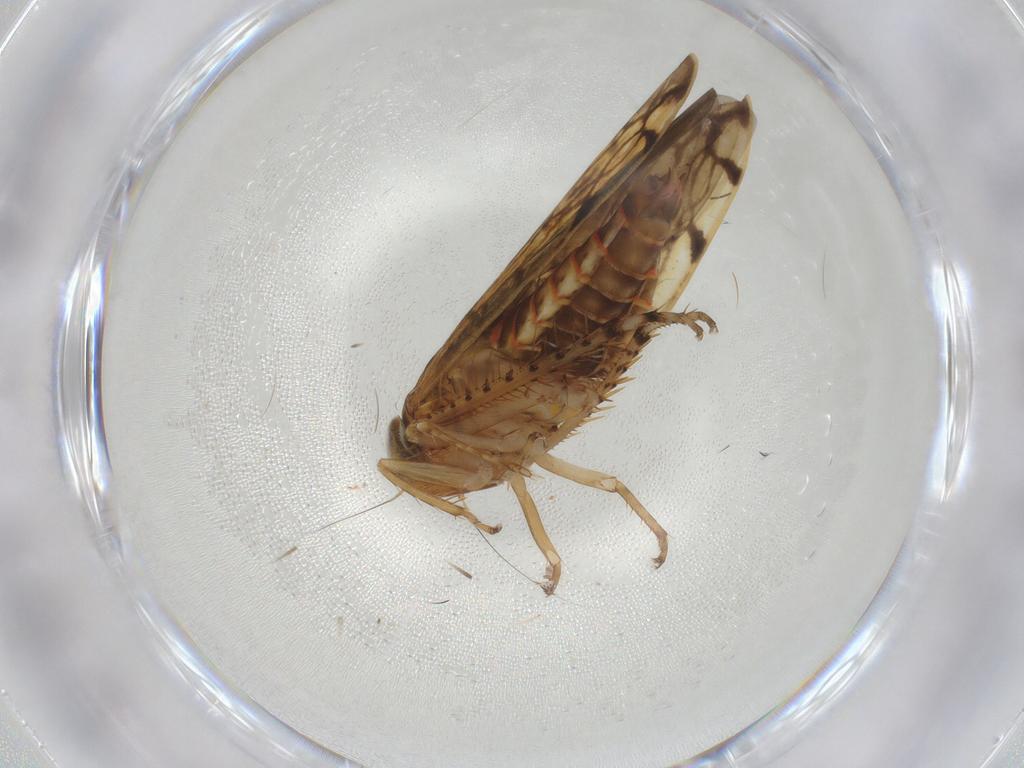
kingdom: Animalia
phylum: Arthropoda
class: Insecta
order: Hemiptera
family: Cicadellidae
